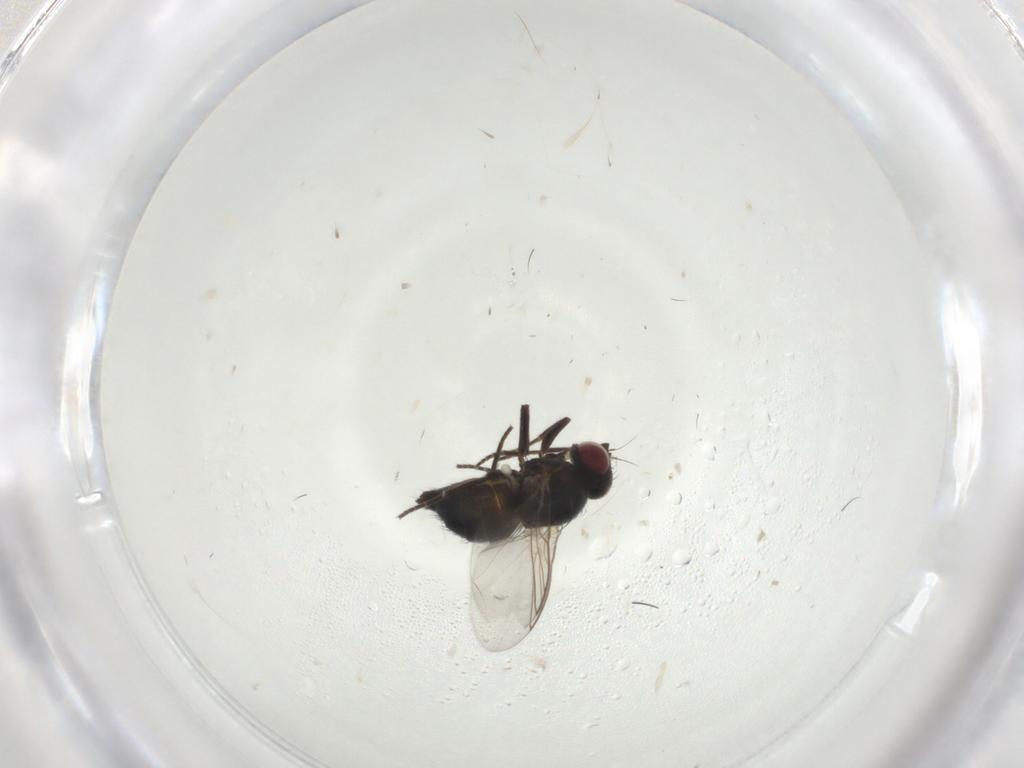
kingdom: Animalia
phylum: Arthropoda
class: Insecta
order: Diptera
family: Agromyzidae
